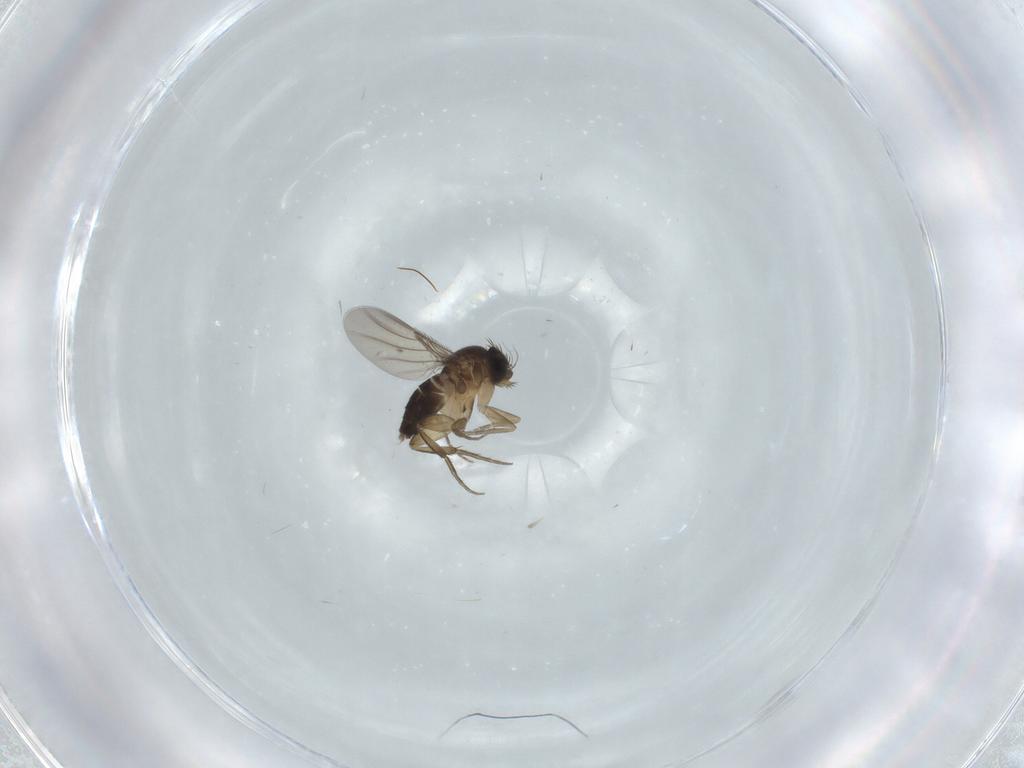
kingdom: Animalia
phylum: Arthropoda
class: Insecta
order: Diptera
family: Phoridae
